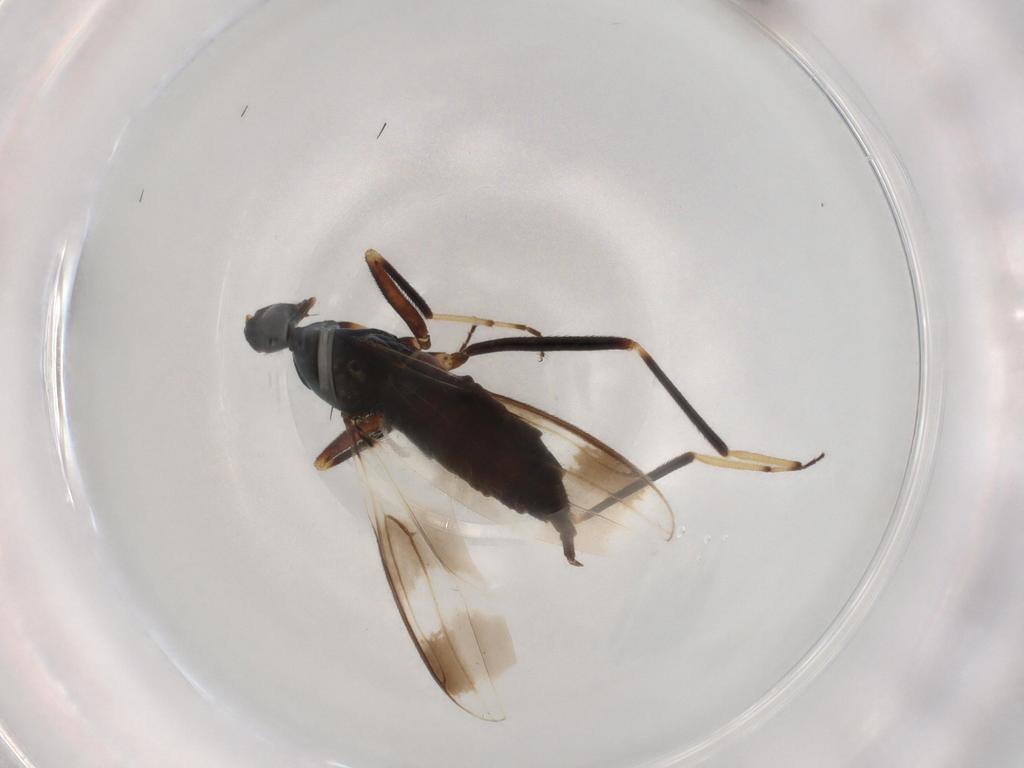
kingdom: Animalia
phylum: Arthropoda
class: Insecta
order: Diptera
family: Hybotidae
